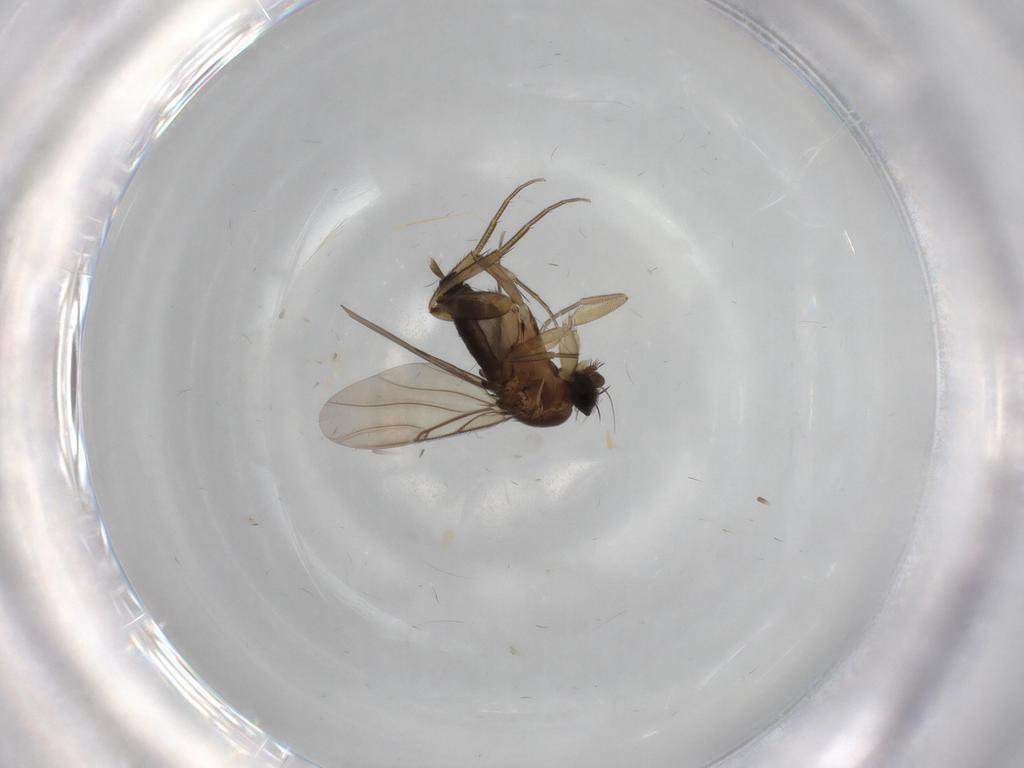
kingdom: Animalia
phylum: Arthropoda
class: Insecta
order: Diptera
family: Phoridae
